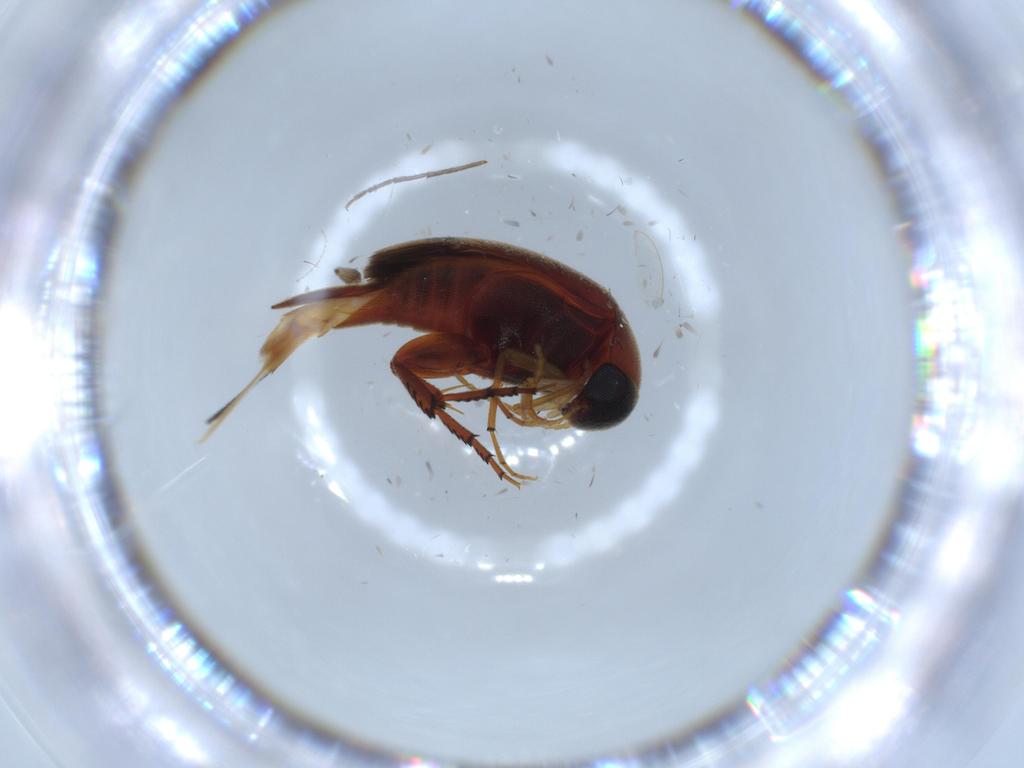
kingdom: Animalia
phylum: Arthropoda
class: Insecta
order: Coleoptera
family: Mordellidae
